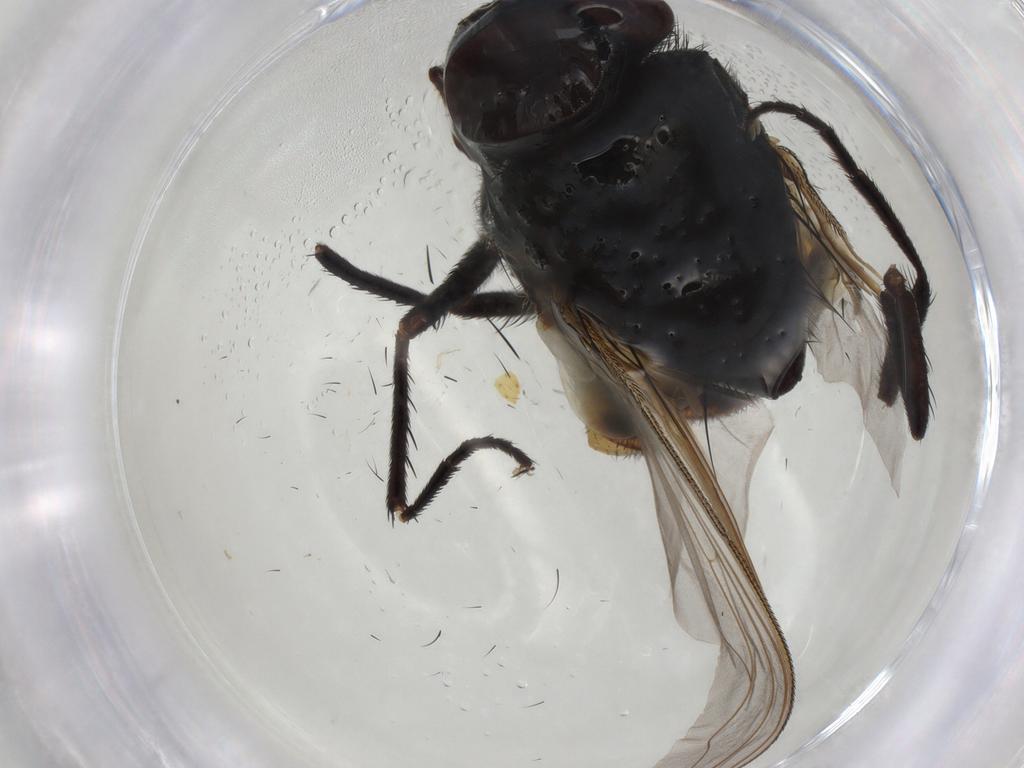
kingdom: Animalia
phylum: Arthropoda
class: Insecta
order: Diptera
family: Muscidae
